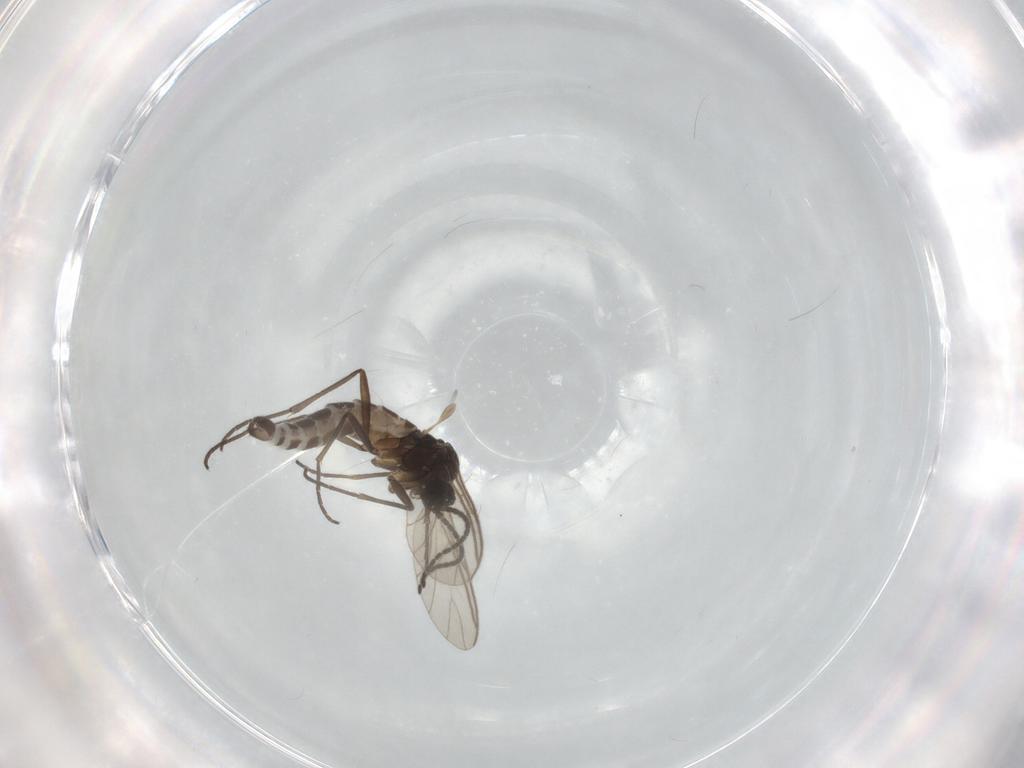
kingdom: Animalia
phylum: Arthropoda
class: Insecta
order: Diptera
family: Sciaridae
